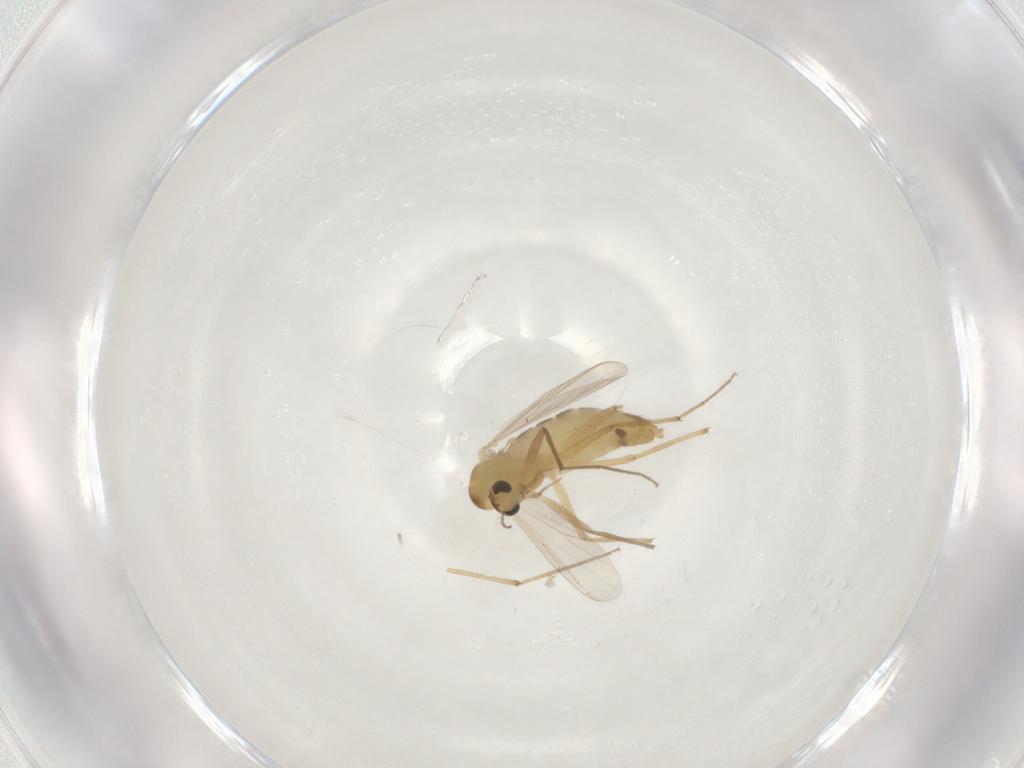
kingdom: Animalia
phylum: Arthropoda
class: Insecta
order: Diptera
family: Chironomidae
